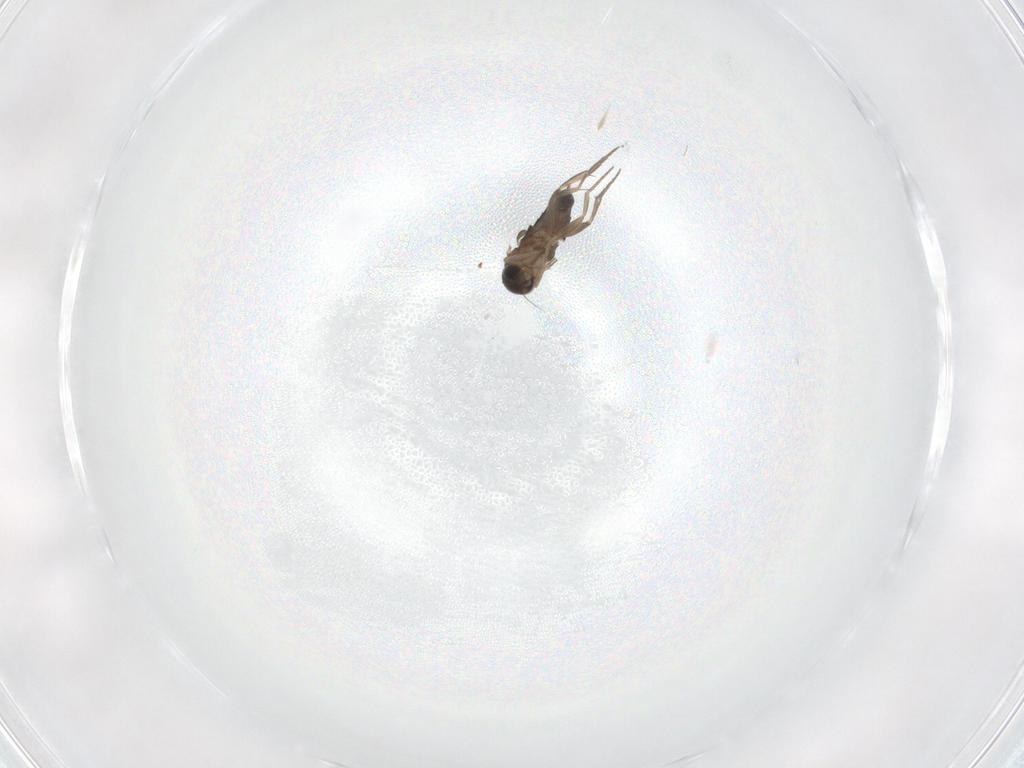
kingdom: Animalia
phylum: Arthropoda
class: Insecta
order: Diptera
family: Phoridae
